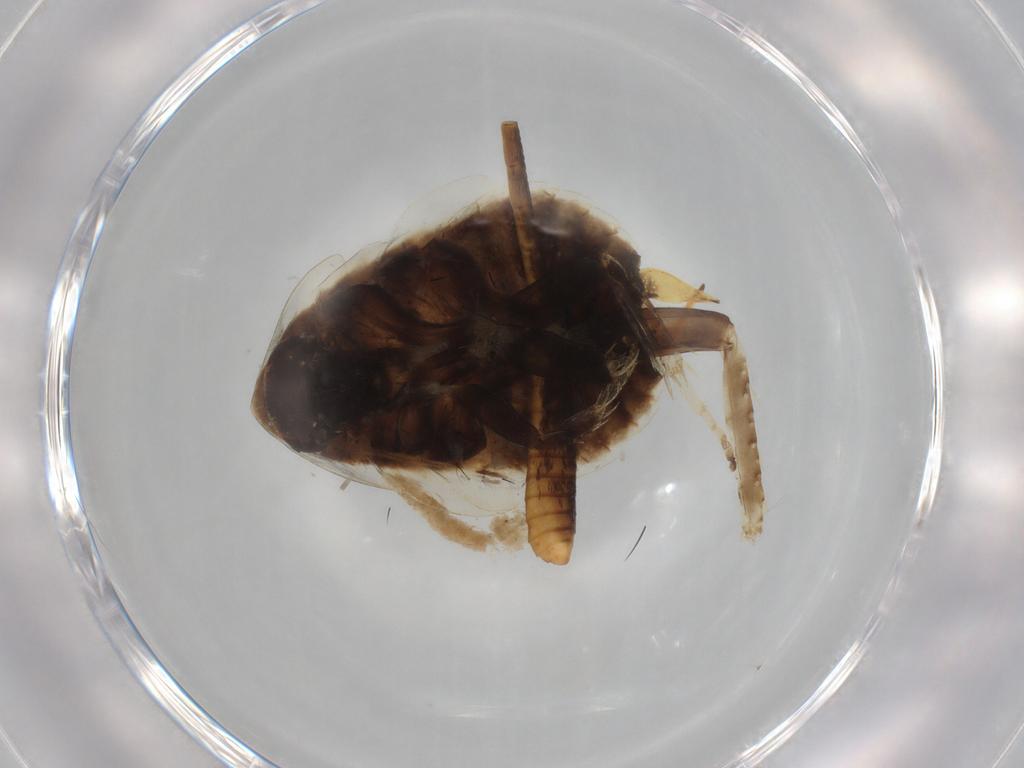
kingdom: Animalia
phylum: Arthropoda
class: Insecta
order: Blattodea
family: Ectobiidae
